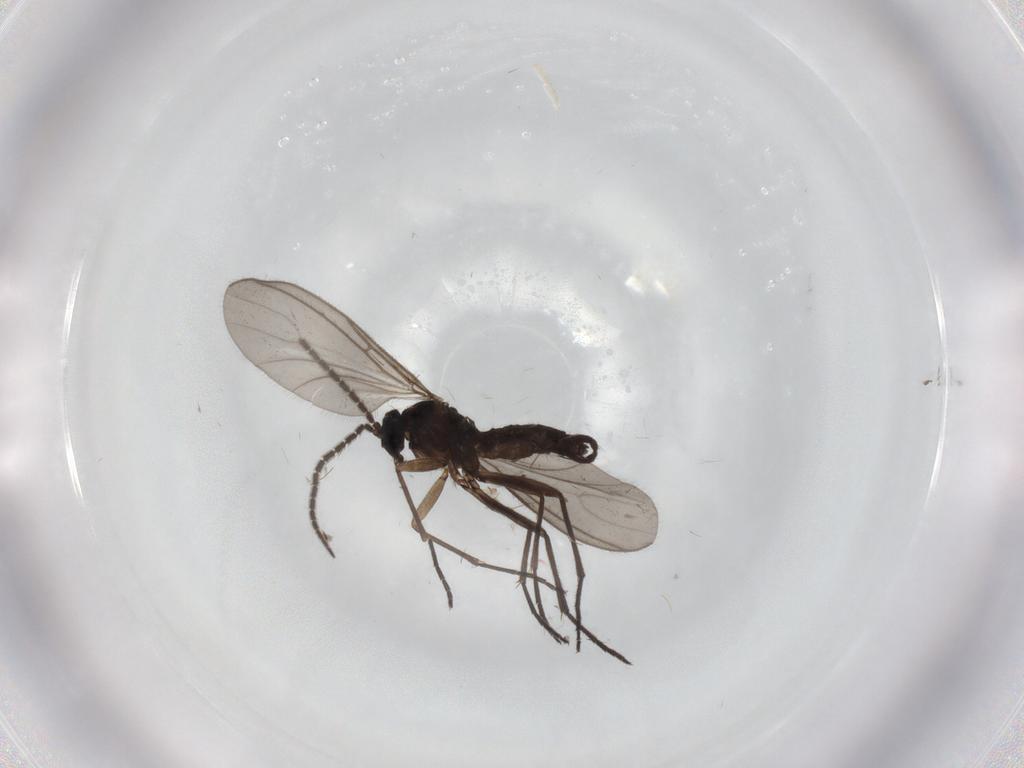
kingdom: Animalia
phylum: Arthropoda
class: Insecta
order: Diptera
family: Sciaridae
